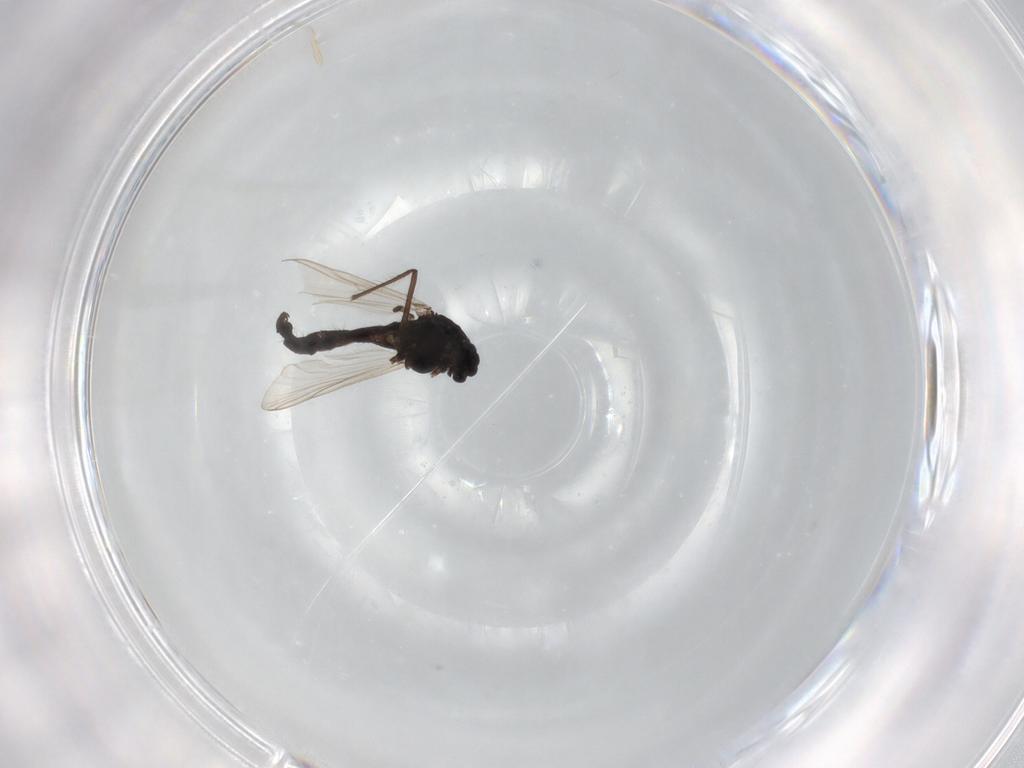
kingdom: Animalia
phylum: Arthropoda
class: Insecta
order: Diptera
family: Chironomidae
